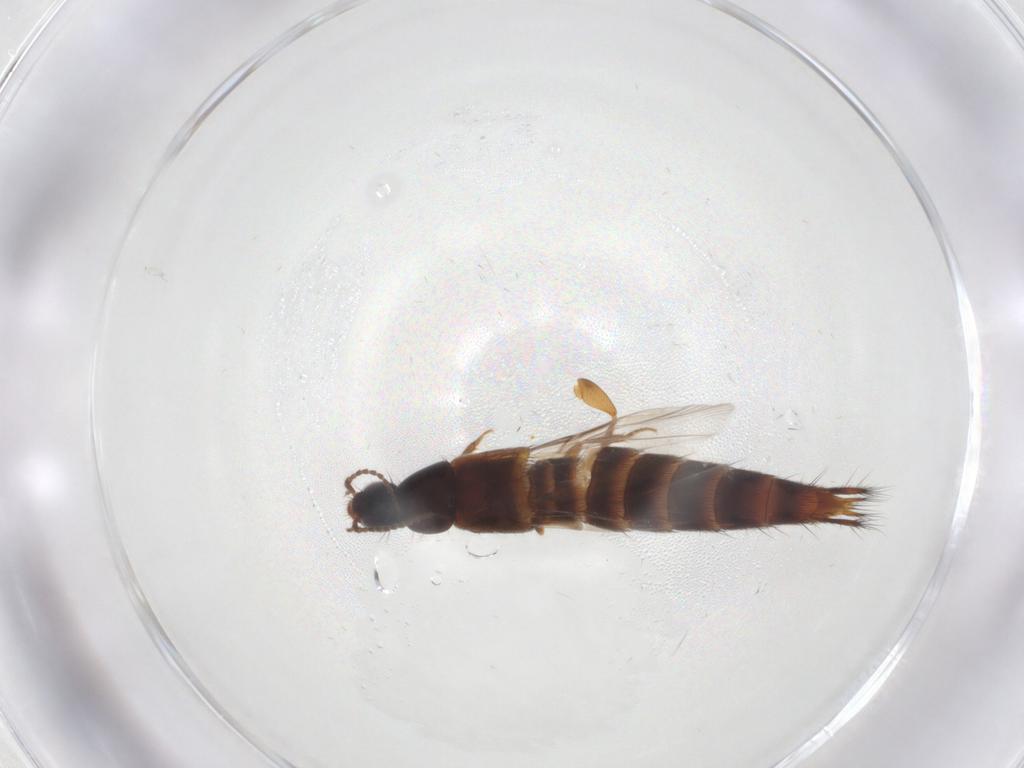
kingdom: Animalia
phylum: Arthropoda
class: Insecta
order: Coleoptera
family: Staphylinidae
